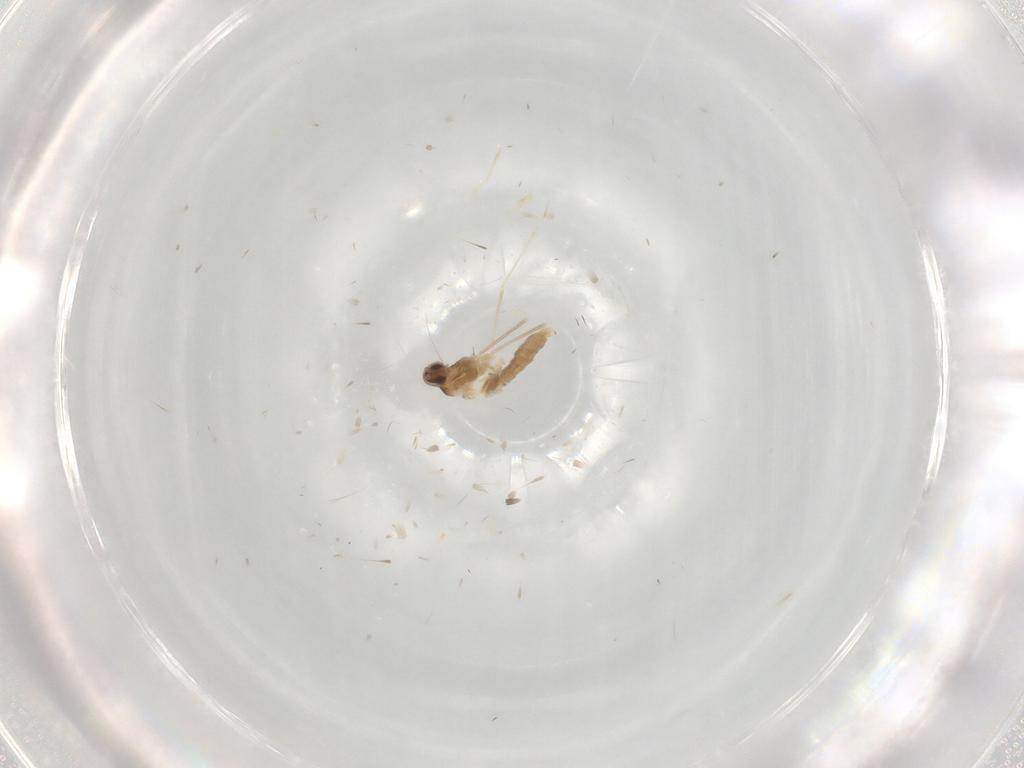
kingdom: Animalia
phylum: Arthropoda
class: Insecta
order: Diptera
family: Cecidomyiidae
